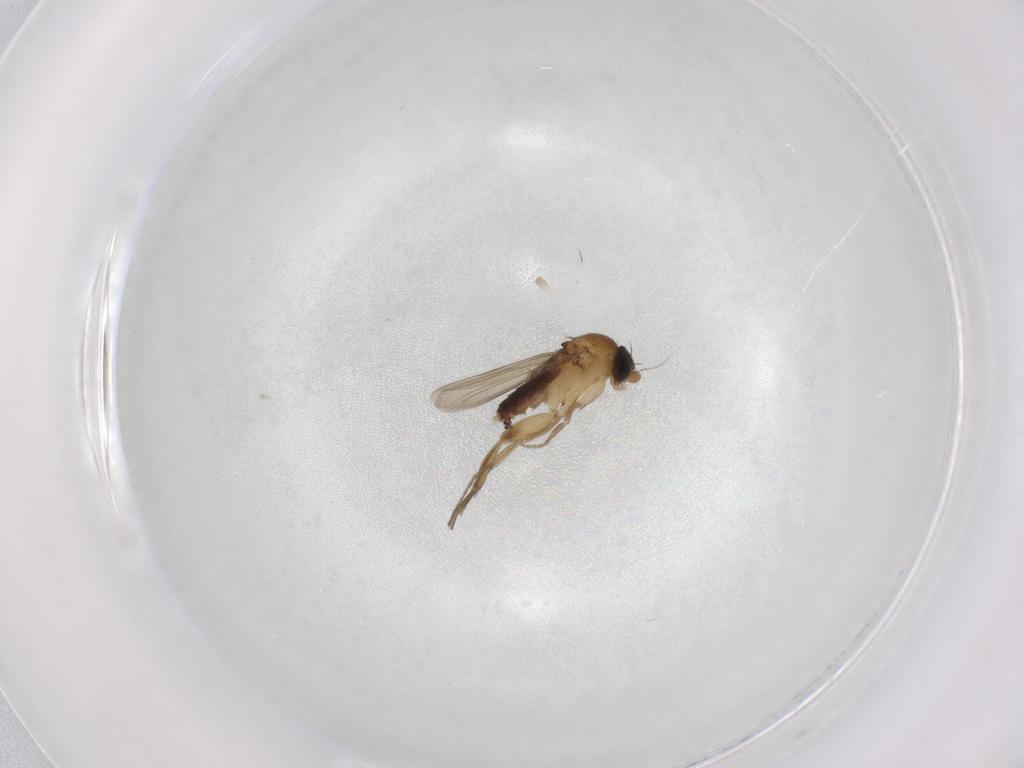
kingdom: Animalia
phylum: Arthropoda
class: Insecta
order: Diptera
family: Phoridae
